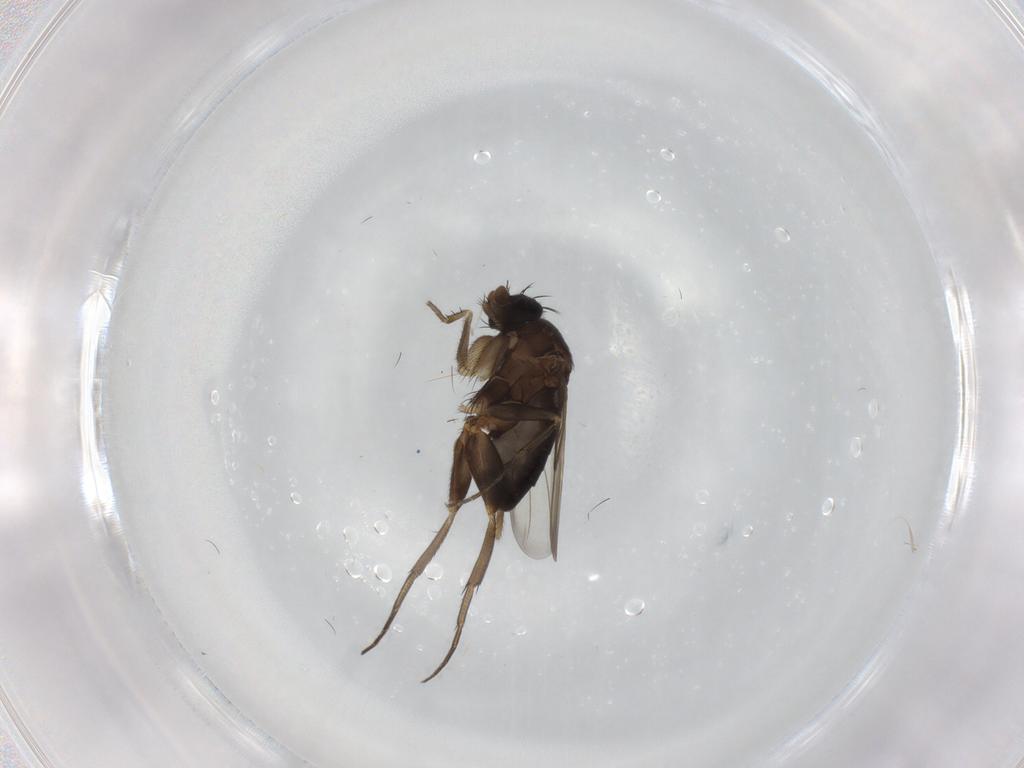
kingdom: Animalia
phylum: Arthropoda
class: Insecta
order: Diptera
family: Phoridae
